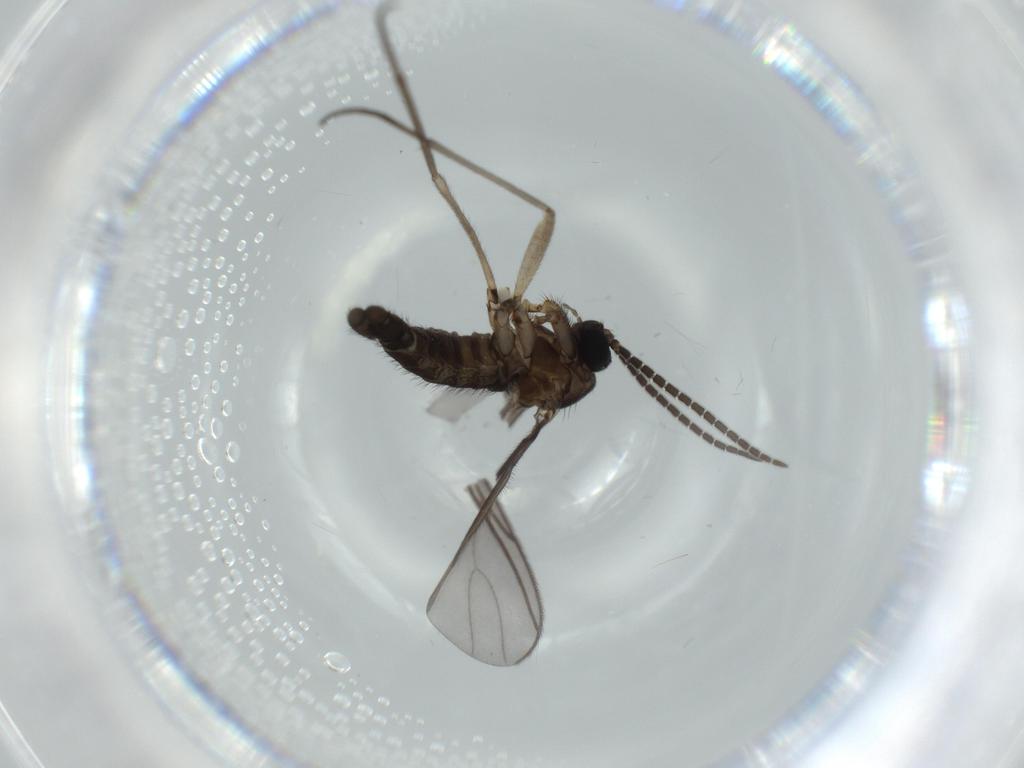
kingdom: Animalia
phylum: Arthropoda
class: Insecta
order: Diptera
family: Sciaridae
